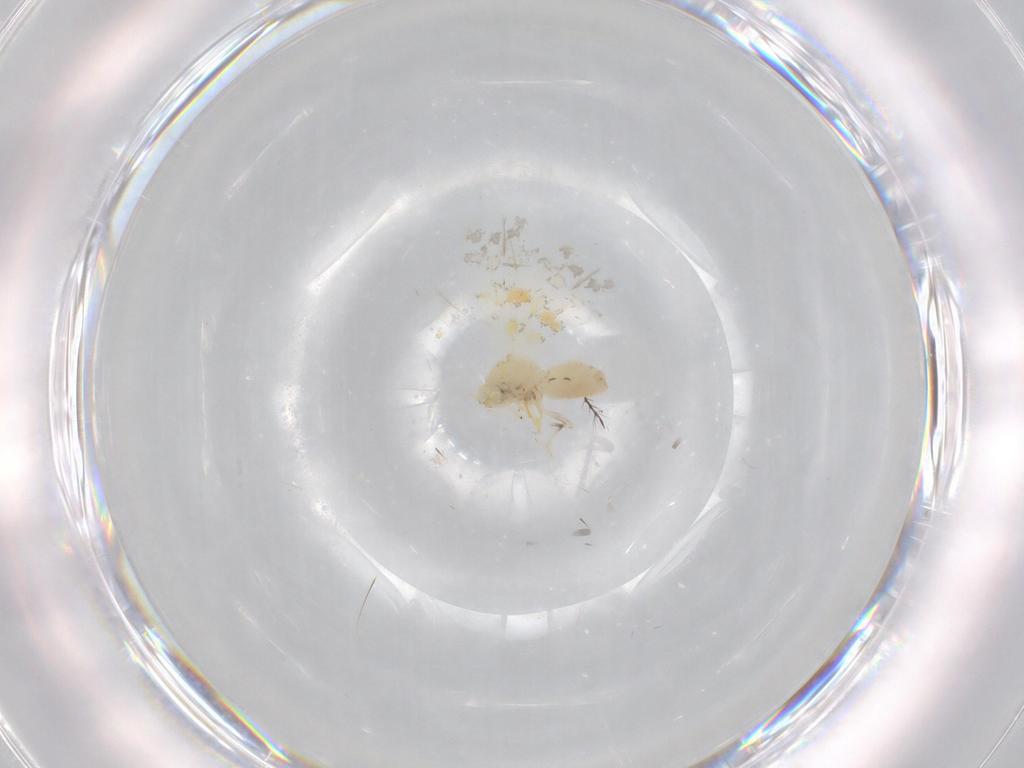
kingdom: Animalia
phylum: Arthropoda
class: Insecta
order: Hemiptera
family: Aleyrodidae
